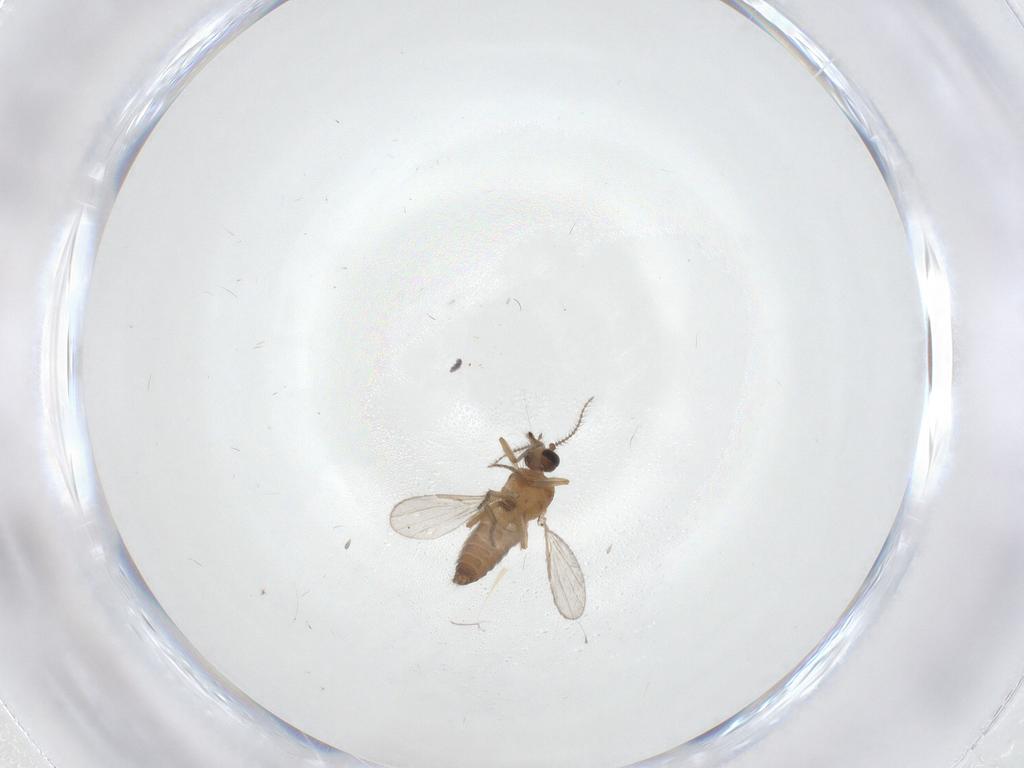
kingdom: Animalia
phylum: Arthropoda
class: Insecta
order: Diptera
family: Ceratopogonidae
